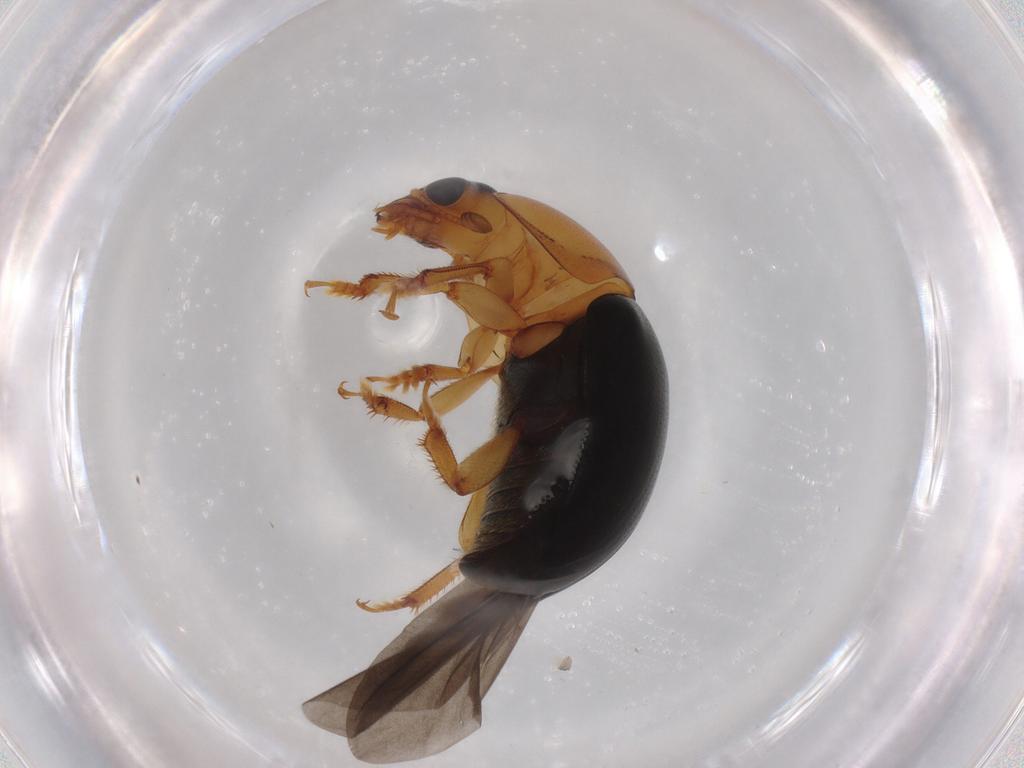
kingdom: Animalia
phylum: Arthropoda
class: Insecta
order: Coleoptera
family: Nitidulidae
